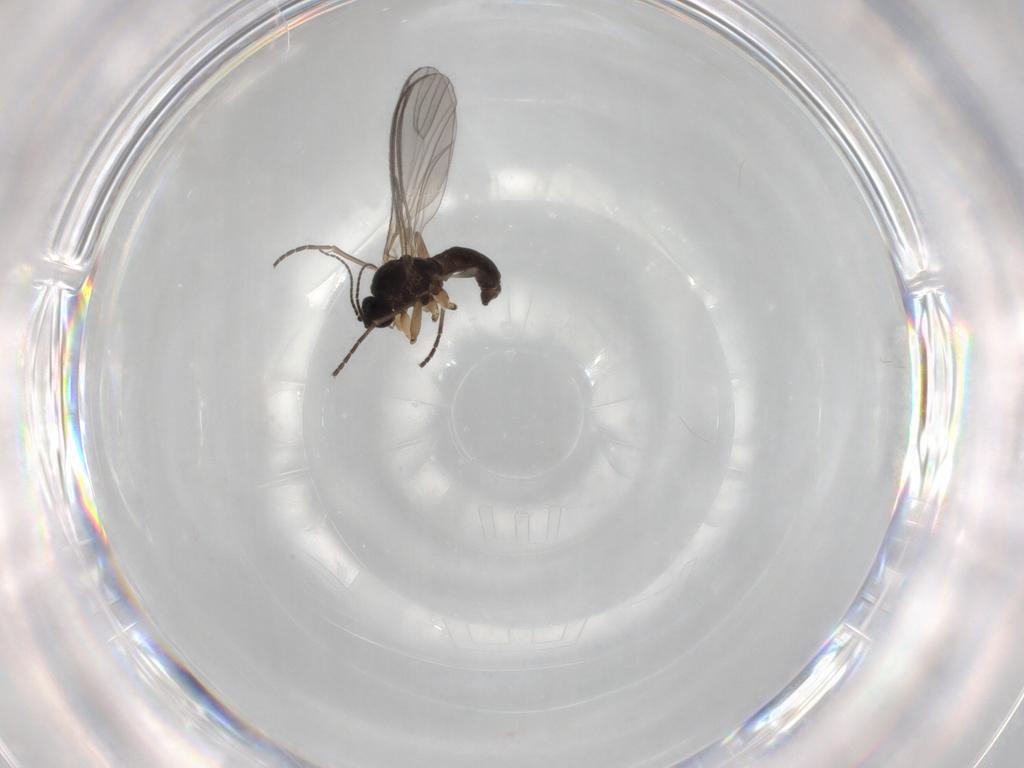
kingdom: Animalia
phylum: Arthropoda
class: Insecta
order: Diptera
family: Sciaridae
